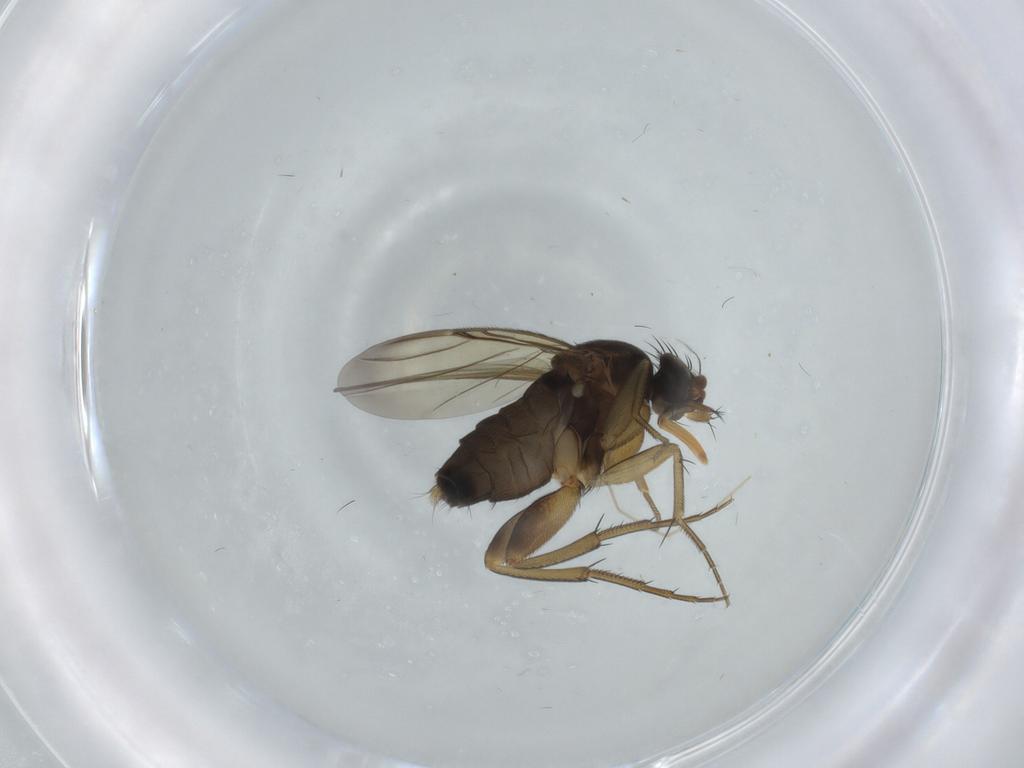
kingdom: Animalia
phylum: Arthropoda
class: Insecta
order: Diptera
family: Phoridae
